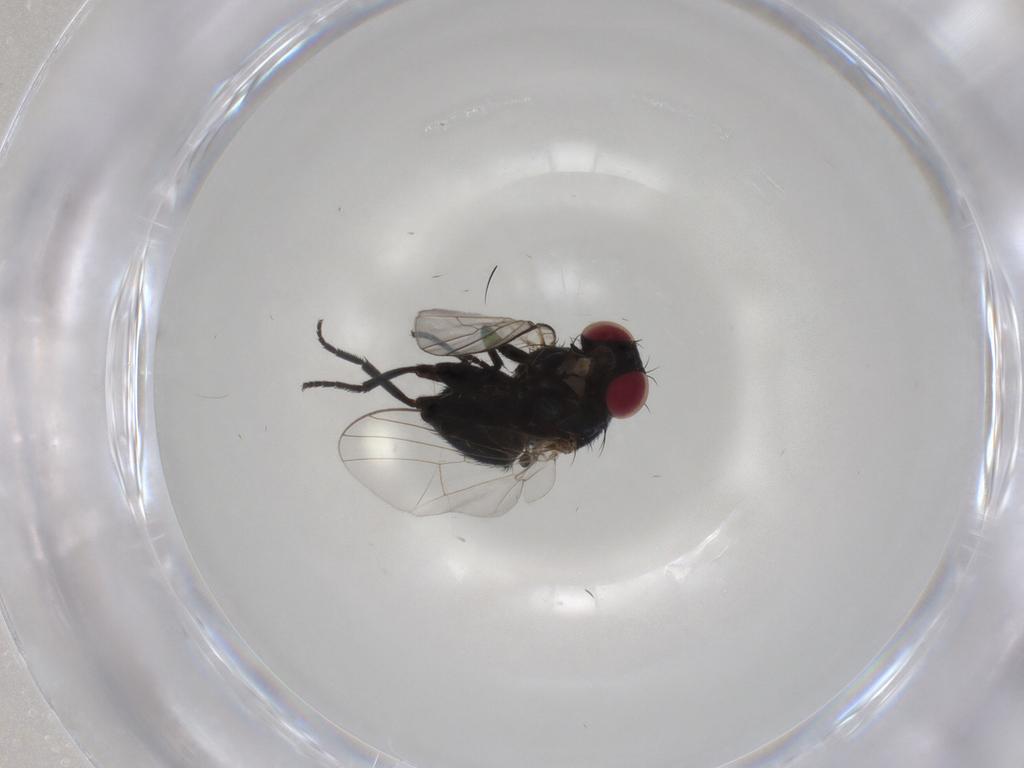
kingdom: Animalia
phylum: Arthropoda
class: Insecta
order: Diptera
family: Agromyzidae
